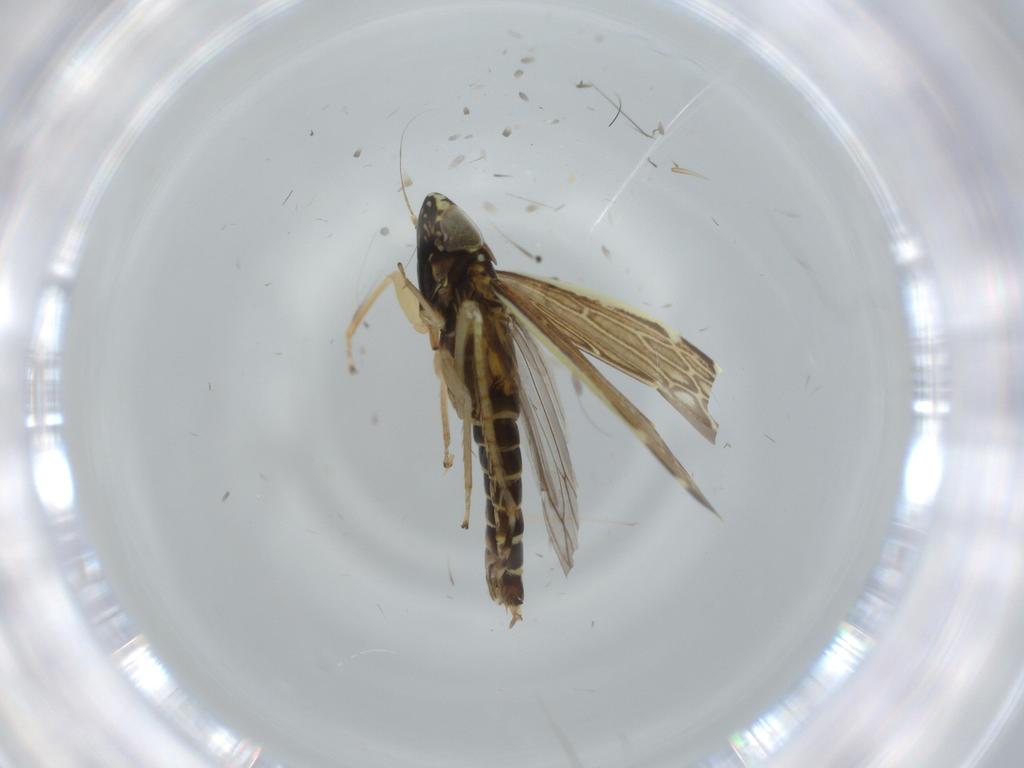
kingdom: Animalia
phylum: Arthropoda
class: Insecta
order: Hemiptera
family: Cicadellidae
